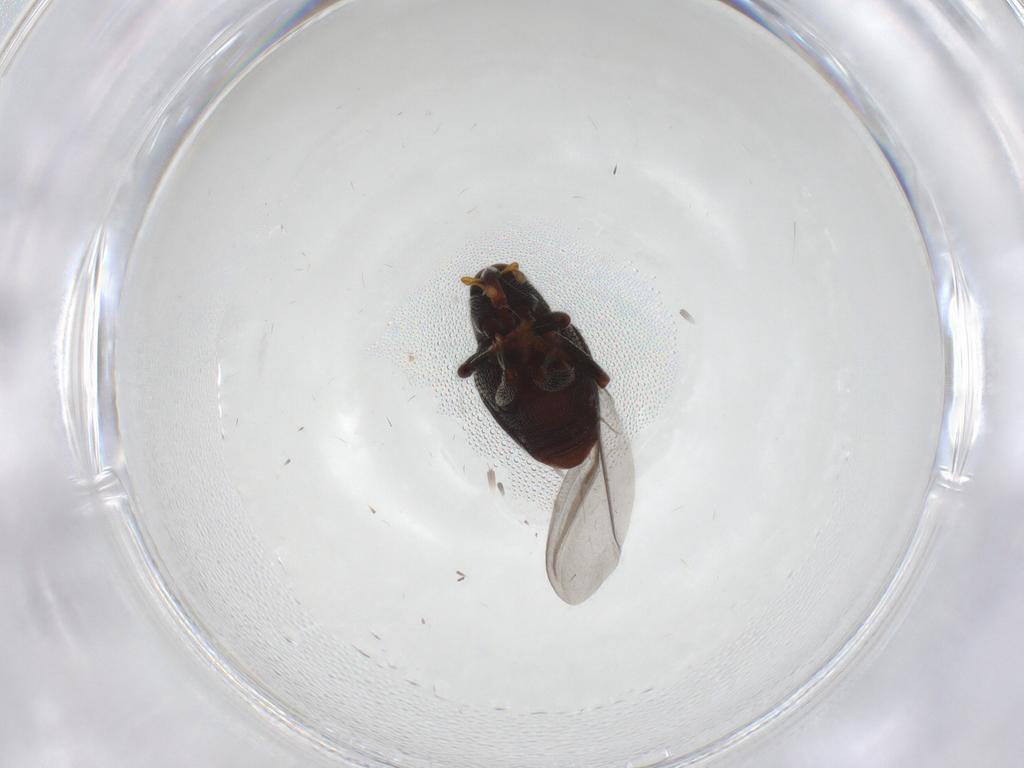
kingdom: Animalia
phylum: Arthropoda
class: Insecta
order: Coleoptera
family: Curculionidae
